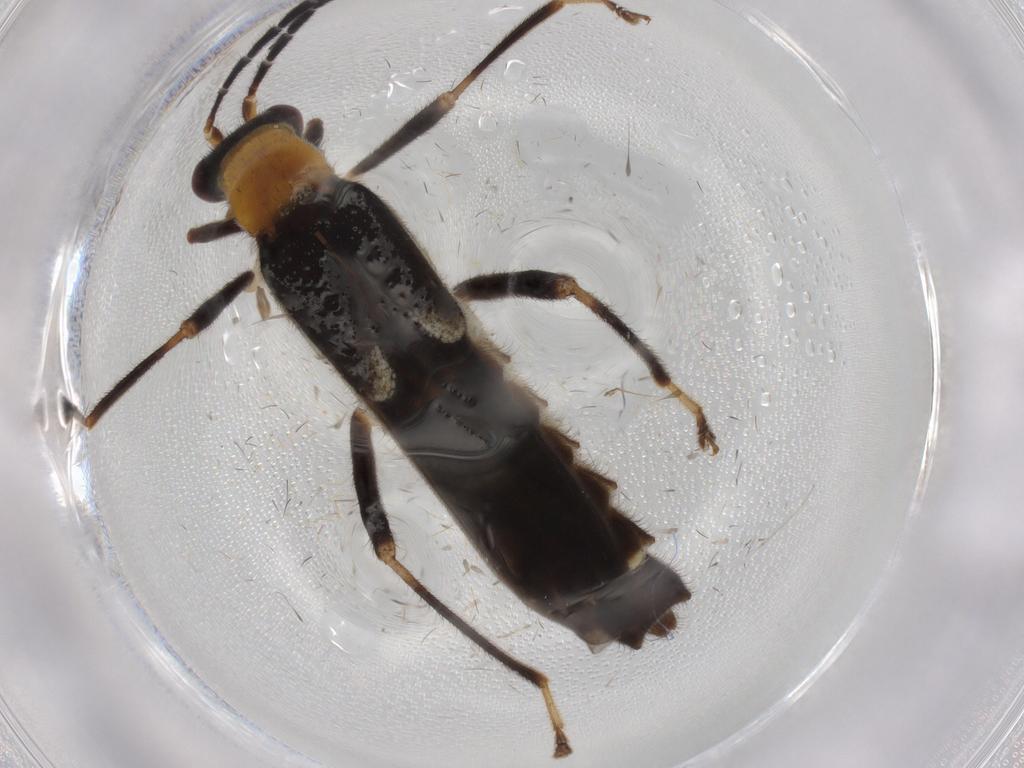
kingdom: Animalia
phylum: Arthropoda
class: Insecta
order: Coleoptera
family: Cantharidae
